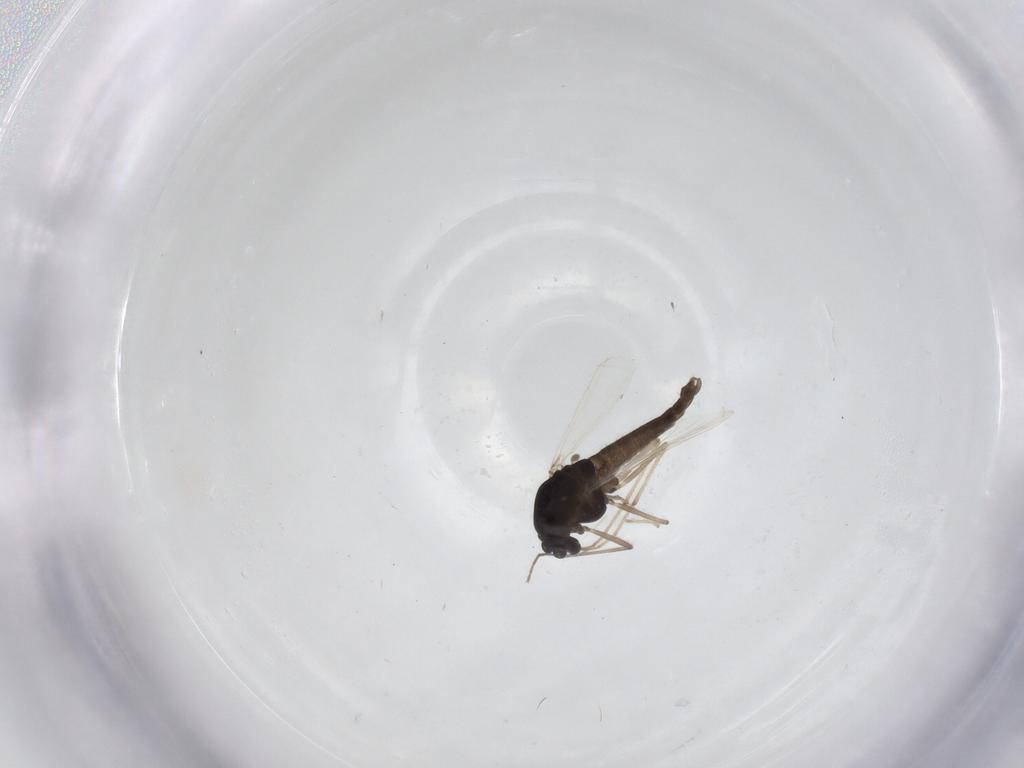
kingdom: Animalia
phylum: Arthropoda
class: Insecta
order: Diptera
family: Chironomidae
